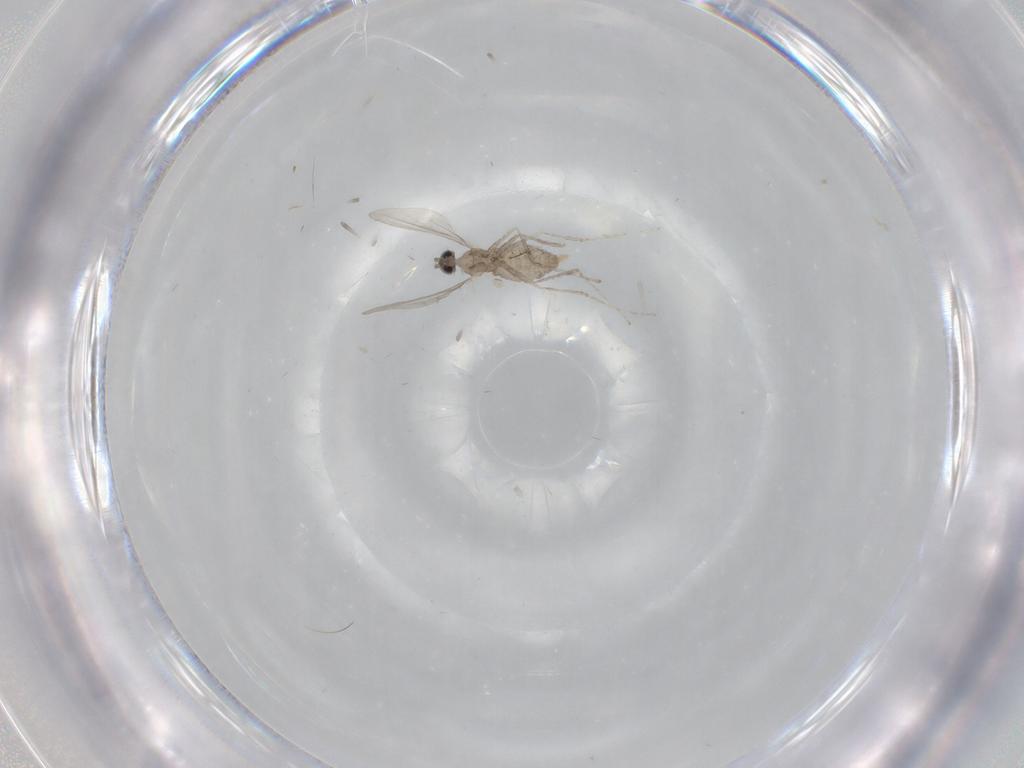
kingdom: Animalia
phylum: Arthropoda
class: Insecta
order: Diptera
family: Cecidomyiidae
